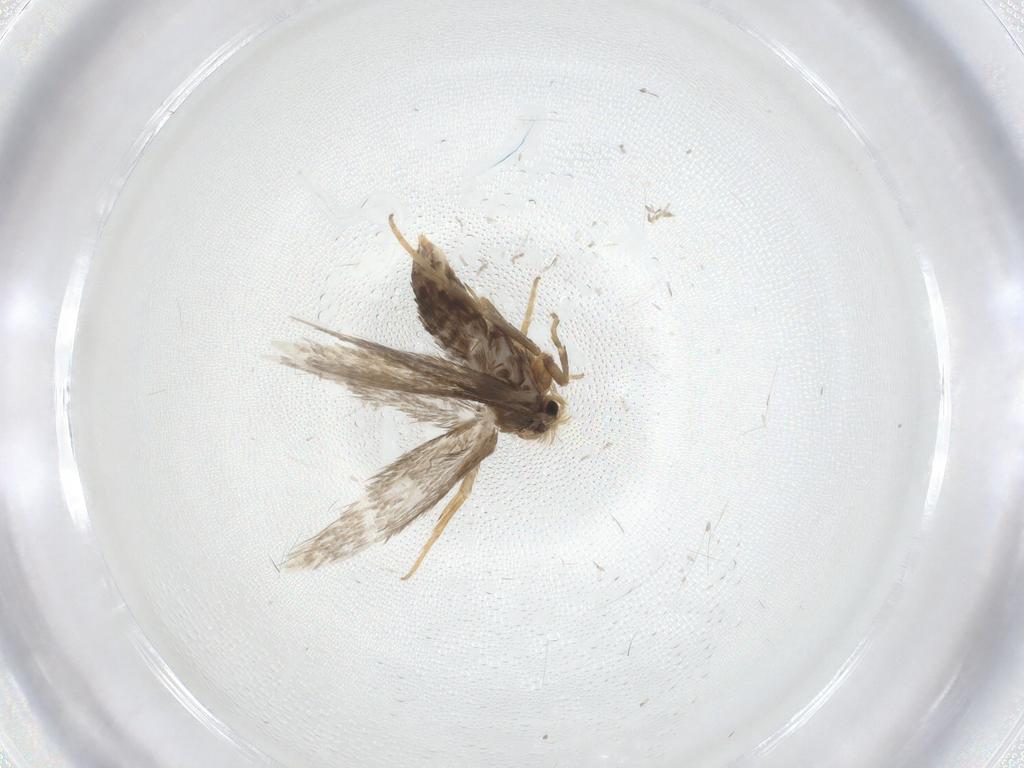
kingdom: Animalia
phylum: Arthropoda
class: Insecta
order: Lepidoptera
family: Nepticulidae
